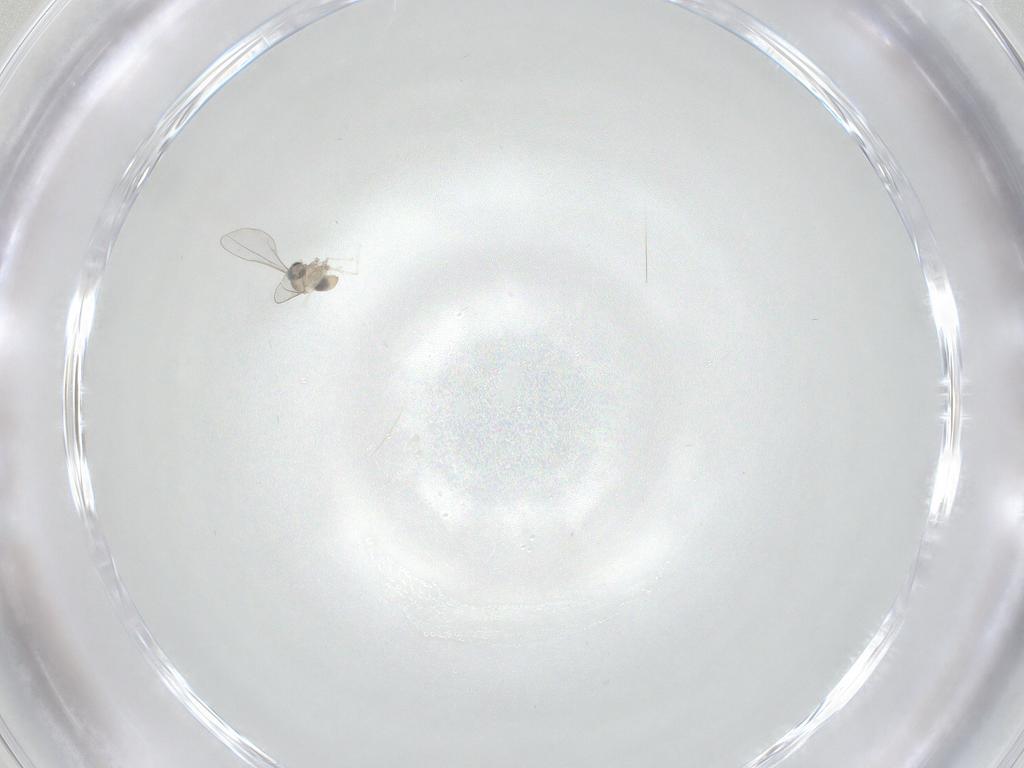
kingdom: Animalia
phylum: Arthropoda
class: Insecta
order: Diptera
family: Cecidomyiidae
